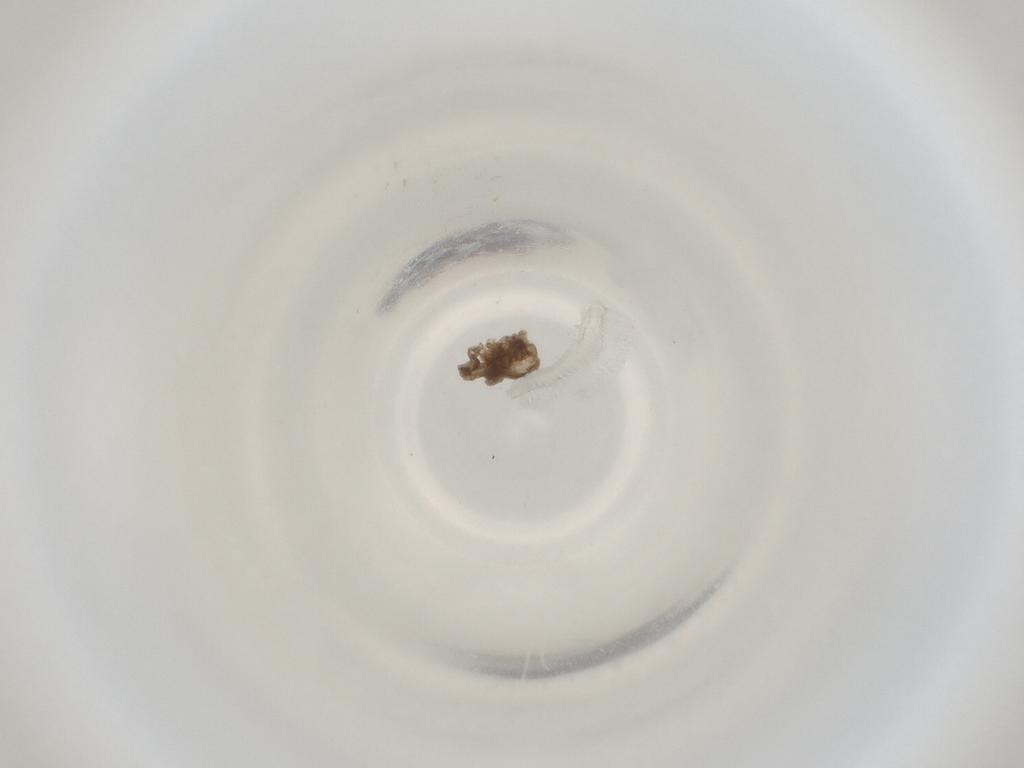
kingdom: Animalia
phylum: Arthropoda
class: Insecta
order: Diptera
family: Cecidomyiidae
